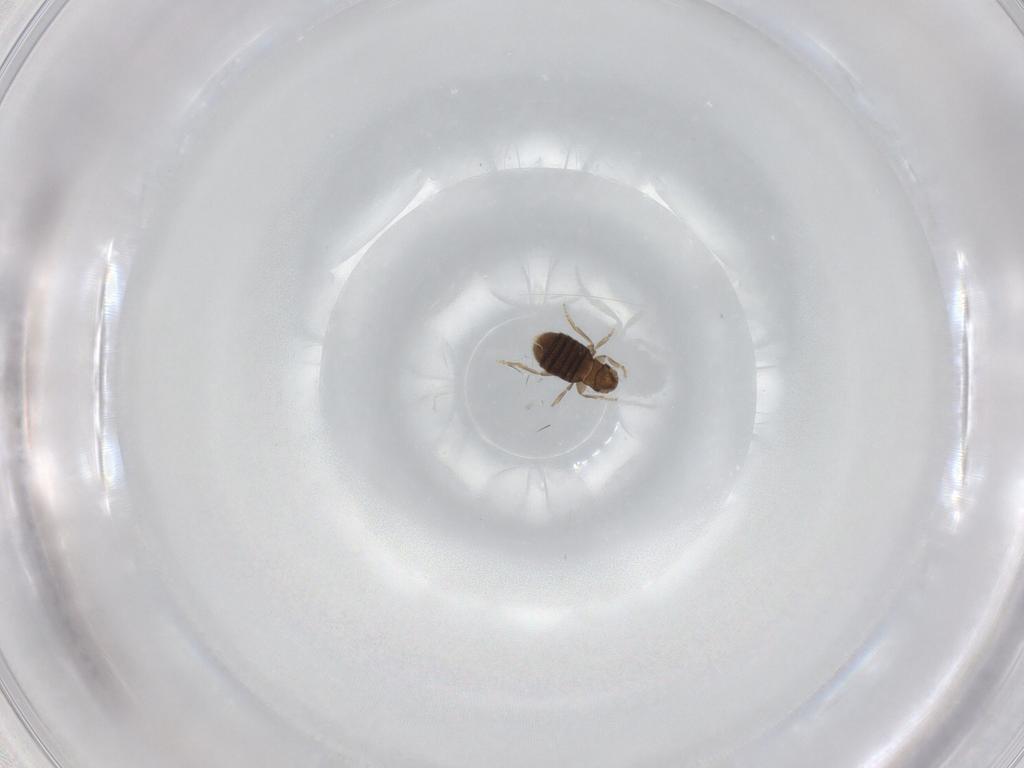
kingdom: Animalia
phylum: Arthropoda
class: Insecta
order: Diptera
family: Sciaridae
